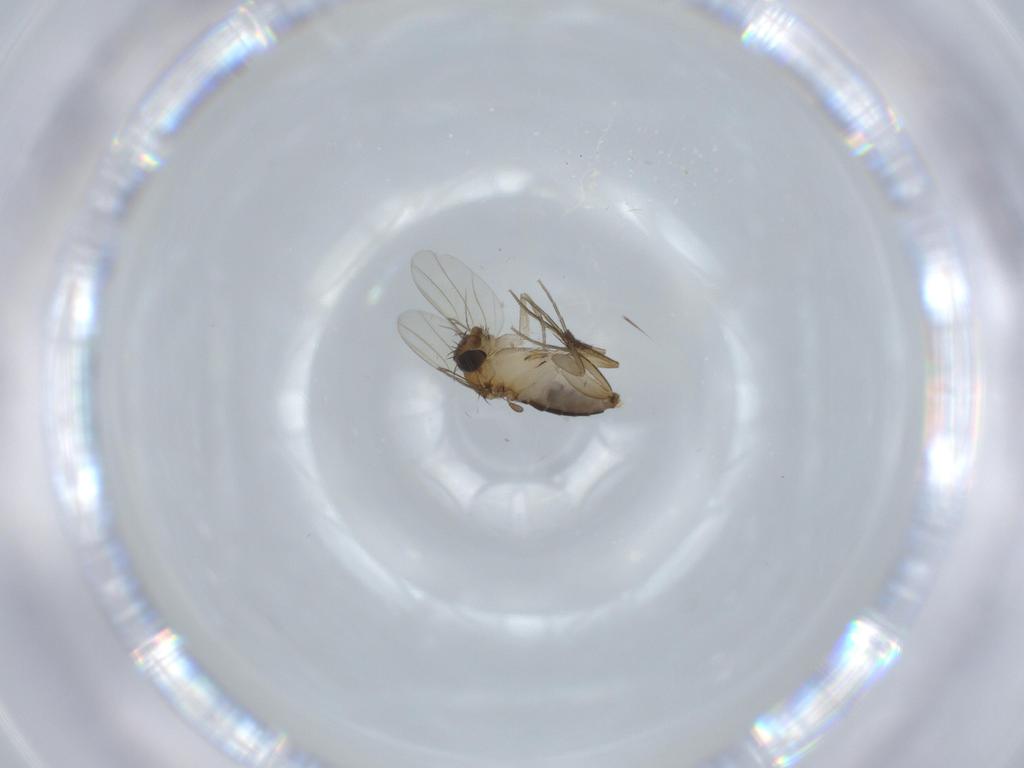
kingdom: Animalia
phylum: Arthropoda
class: Insecta
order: Diptera
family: Phoridae
